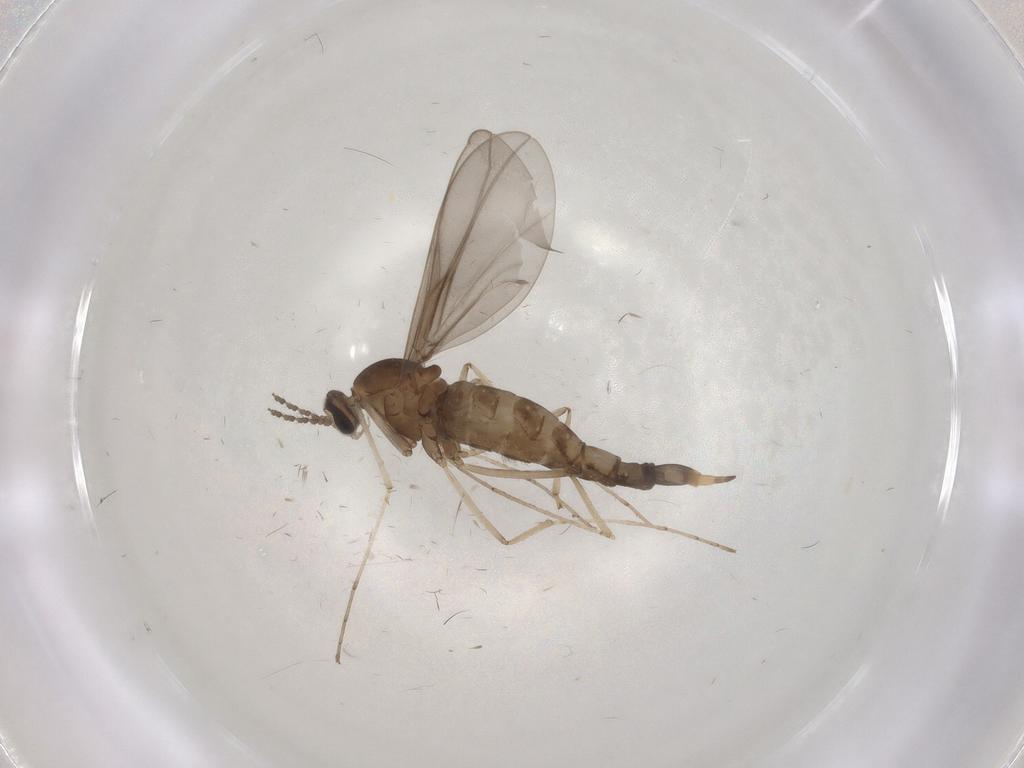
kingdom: Animalia
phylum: Arthropoda
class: Insecta
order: Diptera
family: Cecidomyiidae
